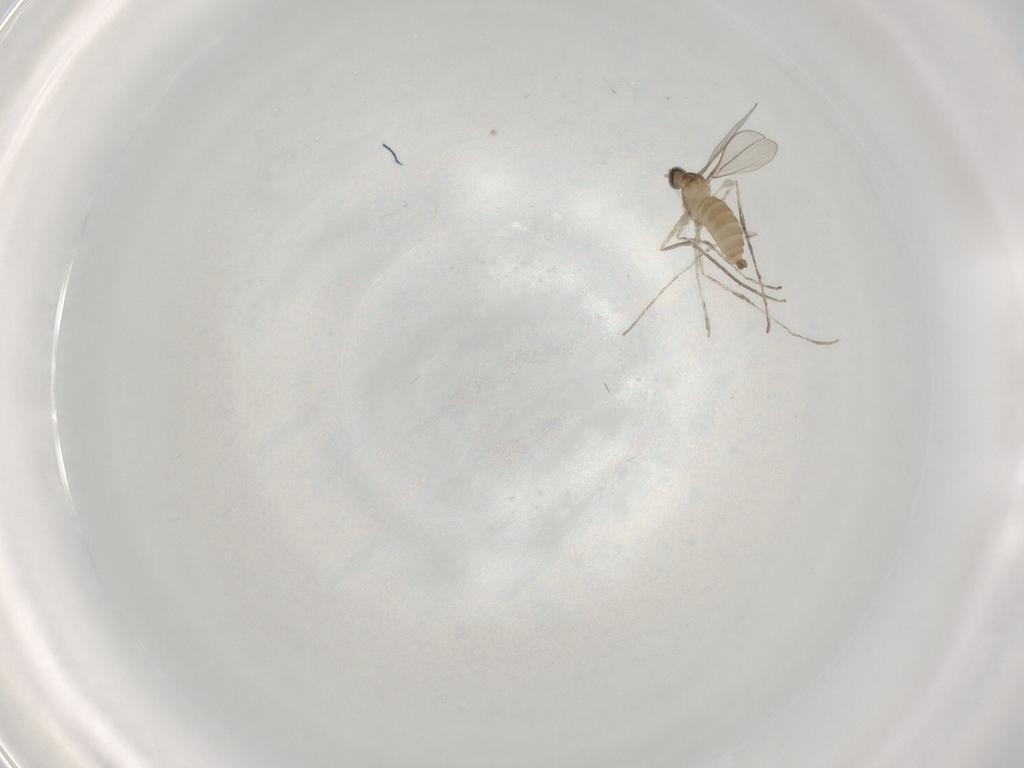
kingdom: Animalia
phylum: Arthropoda
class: Insecta
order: Diptera
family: Cecidomyiidae
